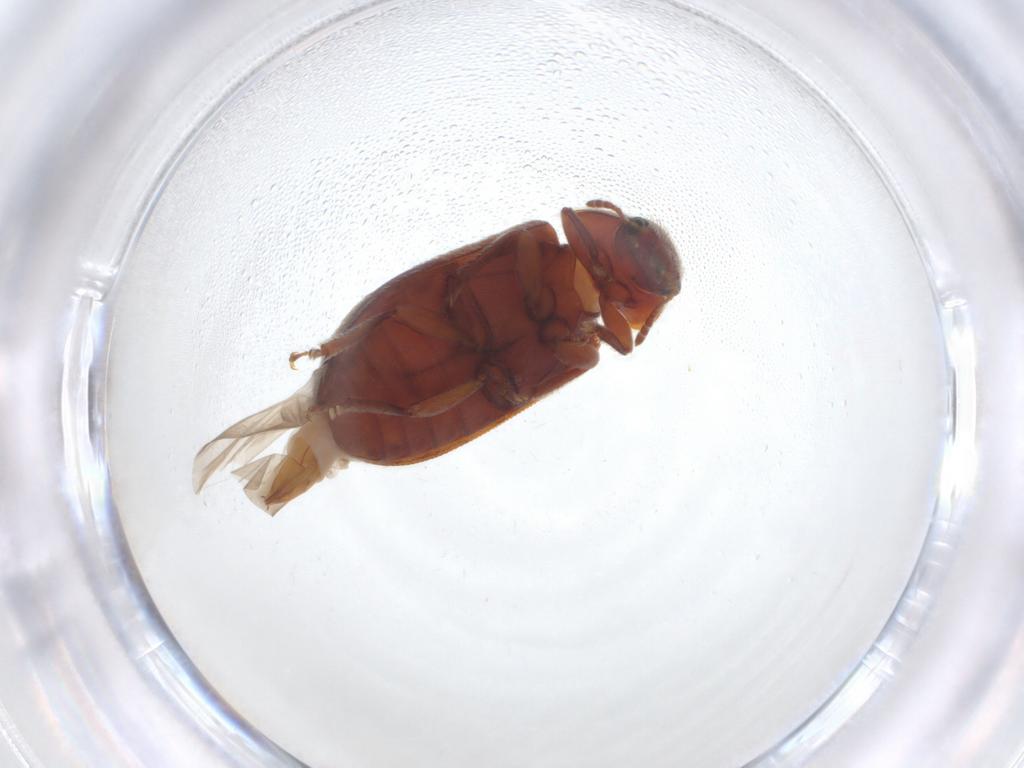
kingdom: Animalia
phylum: Arthropoda
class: Insecta
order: Coleoptera
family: Byturidae
